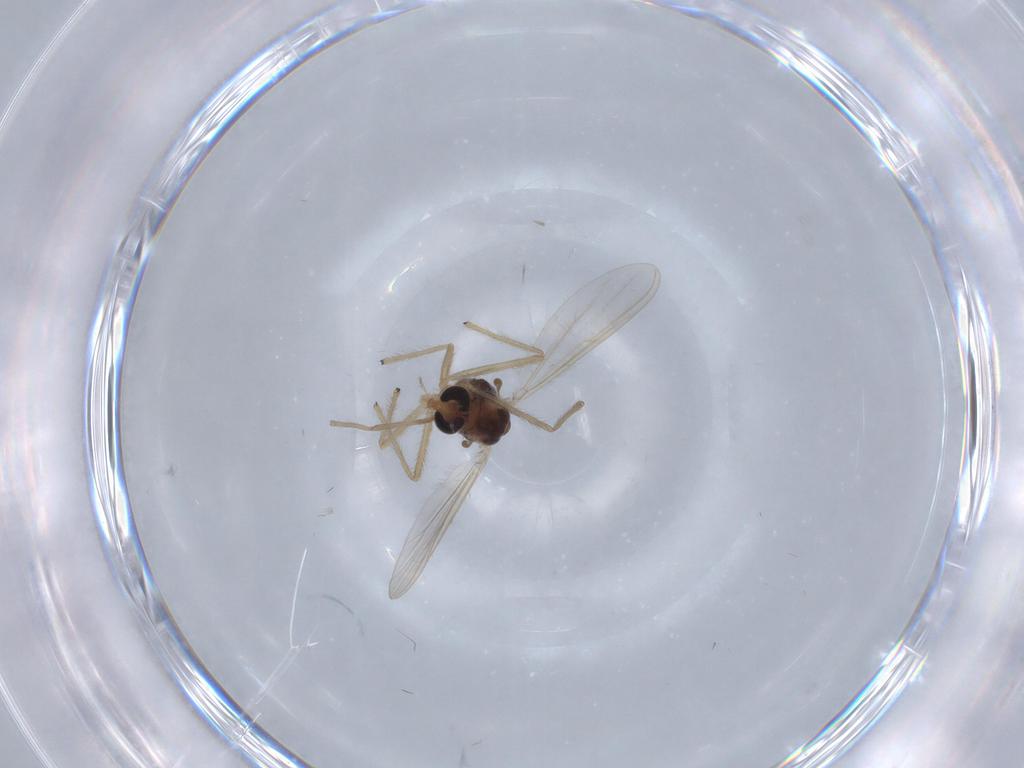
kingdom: Animalia
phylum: Arthropoda
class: Insecta
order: Diptera
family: Chironomidae
